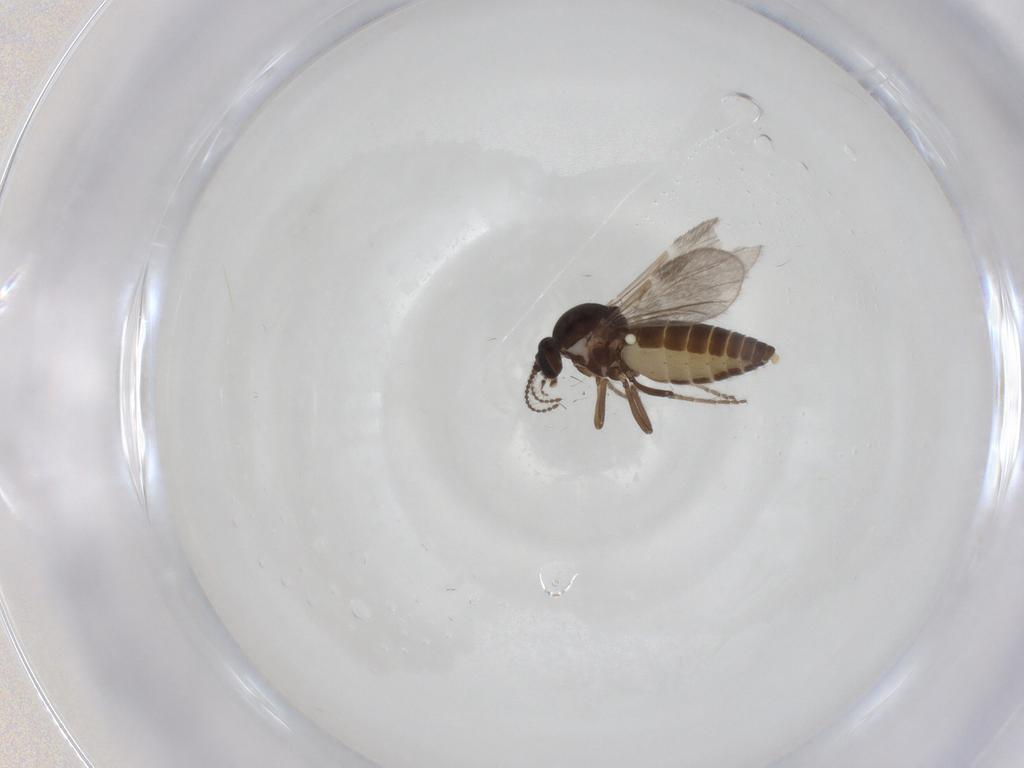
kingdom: Animalia
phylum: Arthropoda
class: Insecta
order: Diptera
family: Ceratopogonidae
